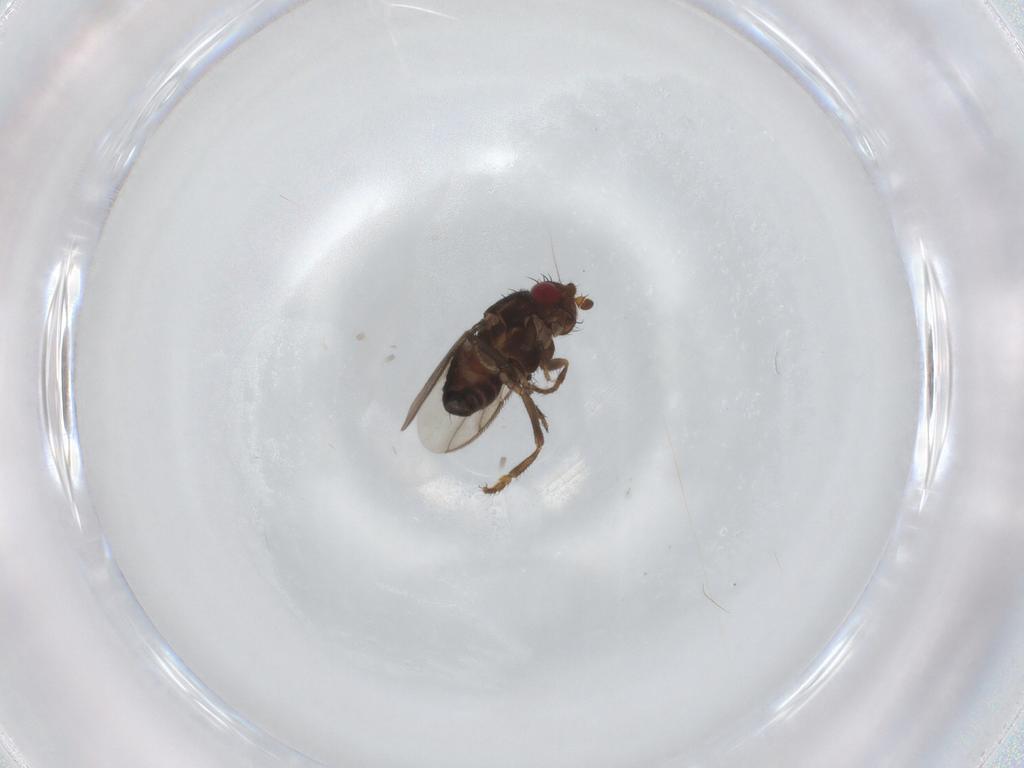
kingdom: Animalia
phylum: Arthropoda
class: Insecta
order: Diptera
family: Sphaeroceridae
